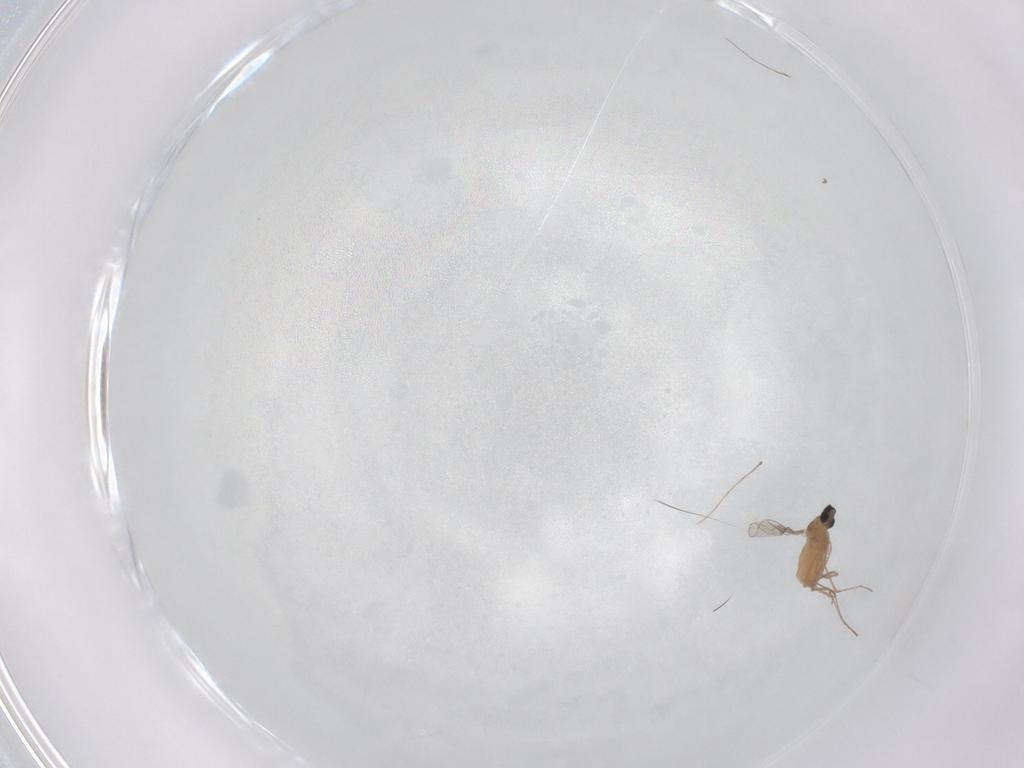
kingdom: Animalia
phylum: Arthropoda
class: Insecta
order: Diptera
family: Cecidomyiidae
